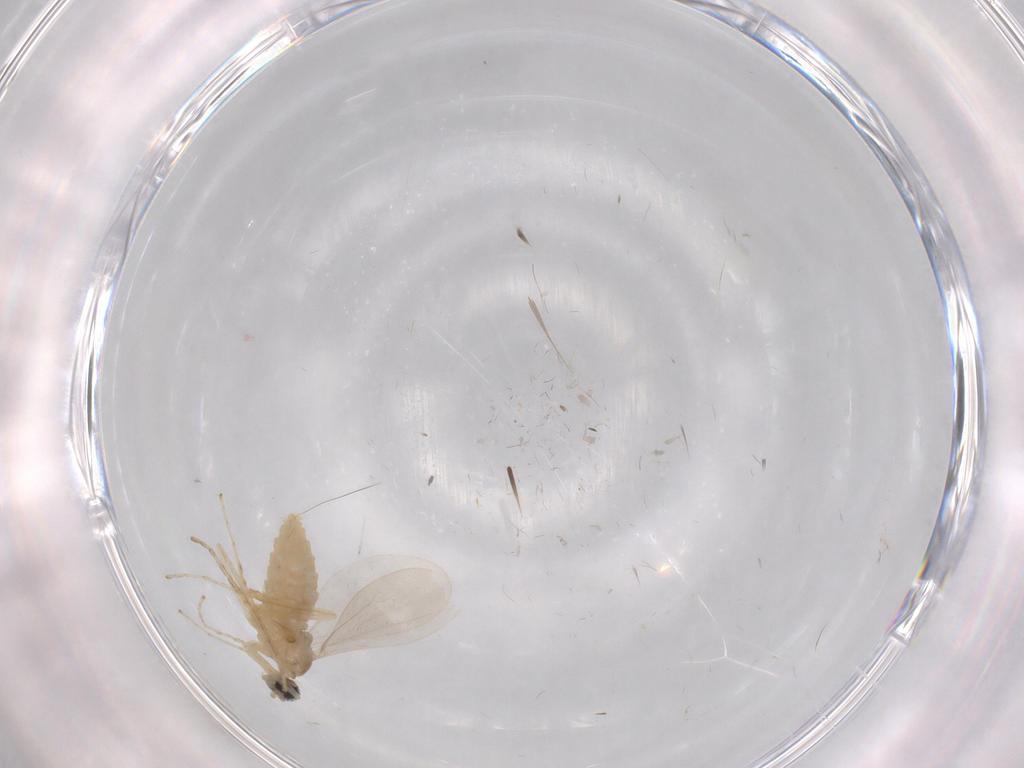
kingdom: Animalia
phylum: Arthropoda
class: Insecta
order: Diptera
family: Cecidomyiidae
